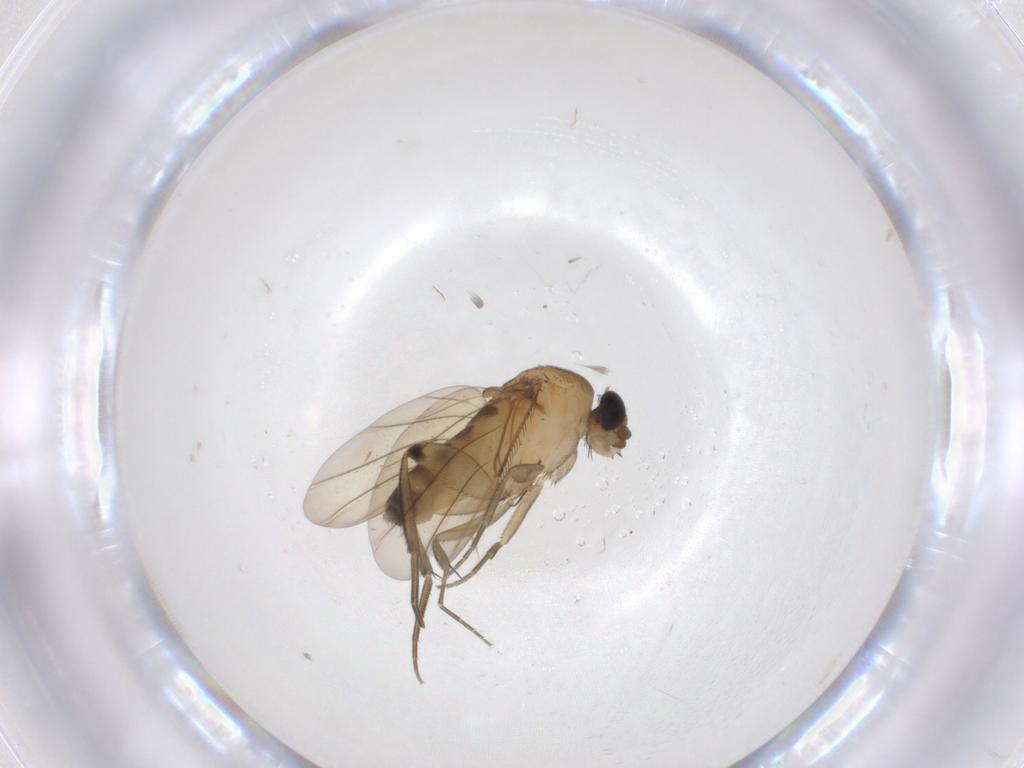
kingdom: Animalia
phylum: Arthropoda
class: Insecta
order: Diptera
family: Phoridae
